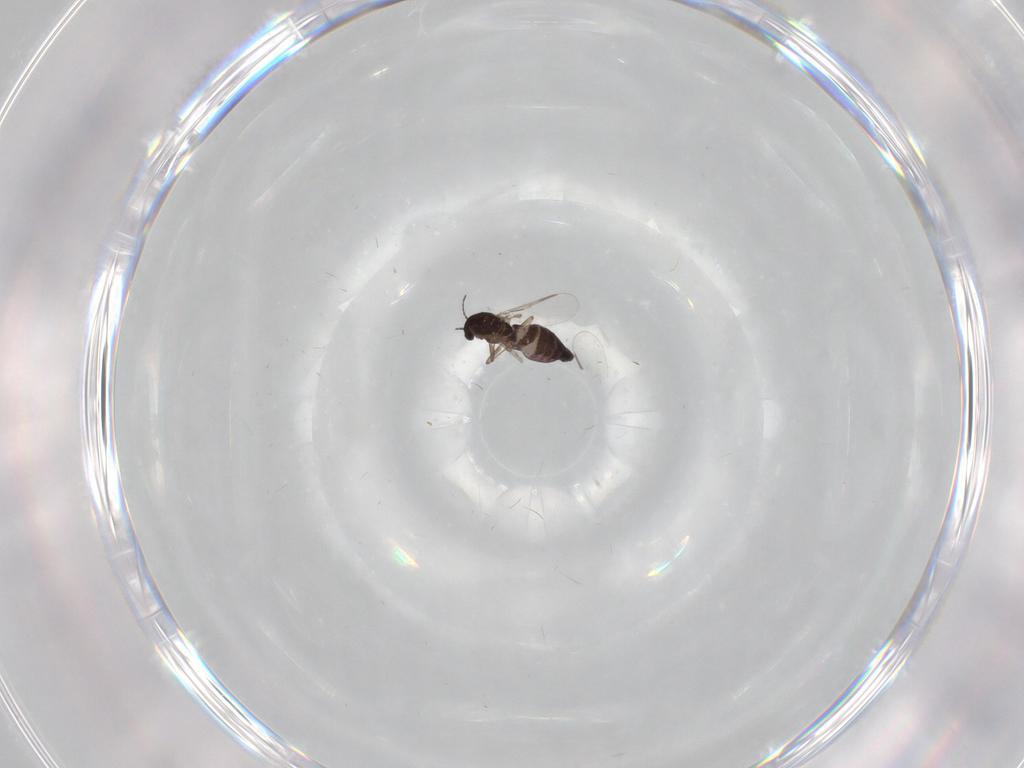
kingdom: Animalia
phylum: Arthropoda
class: Insecta
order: Diptera
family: Chironomidae
